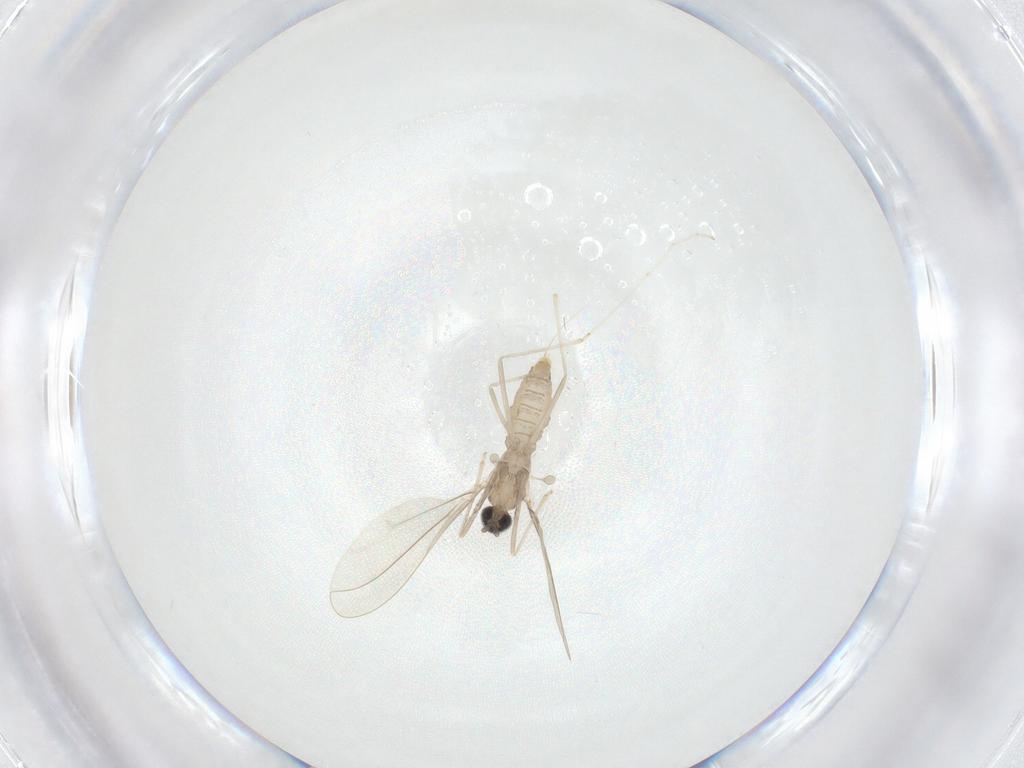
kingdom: Animalia
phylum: Arthropoda
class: Insecta
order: Diptera
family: Cecidomyiidae
